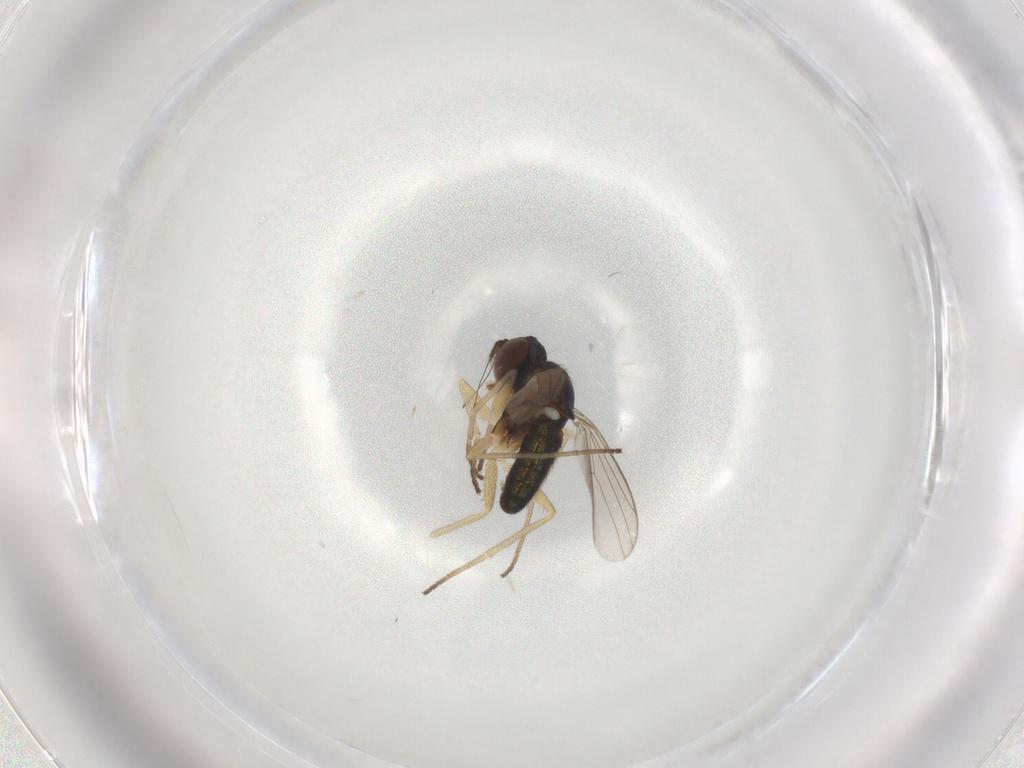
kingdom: Animalia
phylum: Arthropoda
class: Insecta
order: Diptera
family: Dolichopodidae
